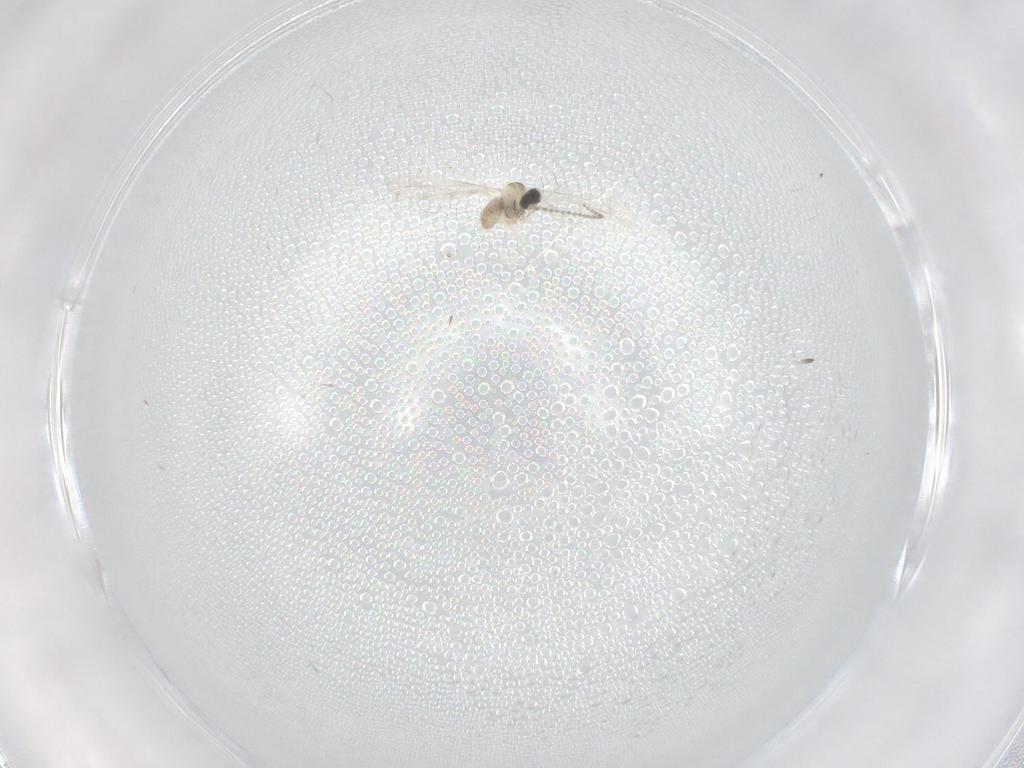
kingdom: Animalia
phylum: Arthropoda
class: Insecta
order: Diptera
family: Cecidomyiidae
